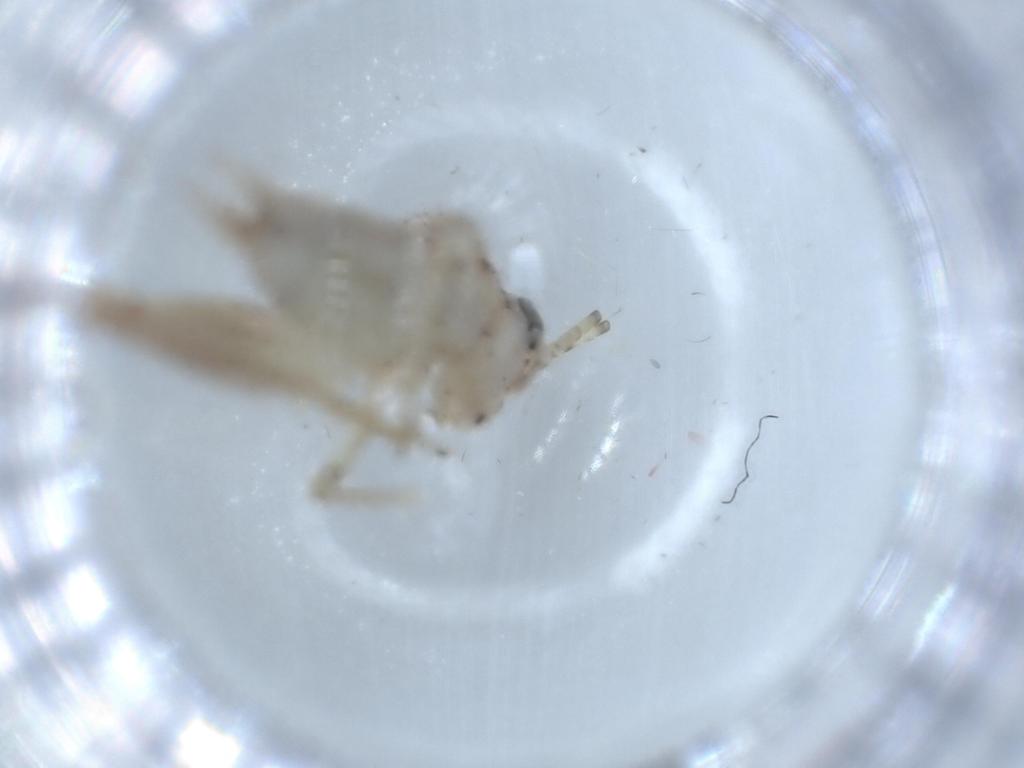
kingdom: Animalia
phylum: Arthropoda
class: Insecta
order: Orthoptera
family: Trigonidiidae
